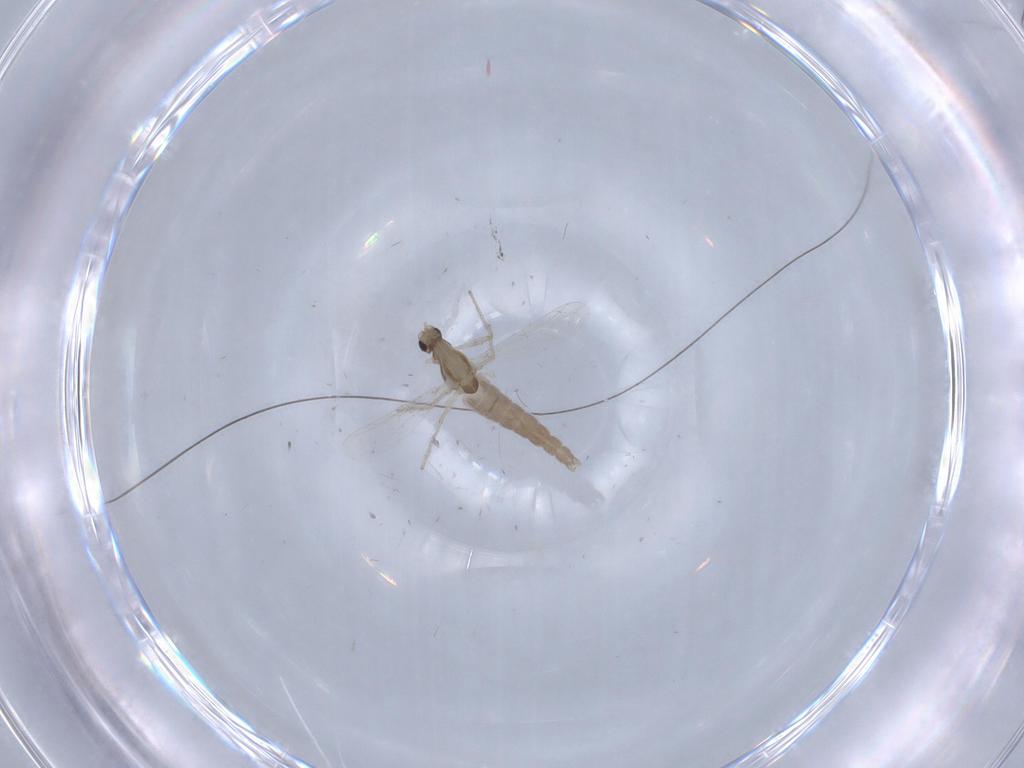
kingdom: Animalia
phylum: Arthropoda
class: Insecta
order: Diptera
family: Chironomidae
